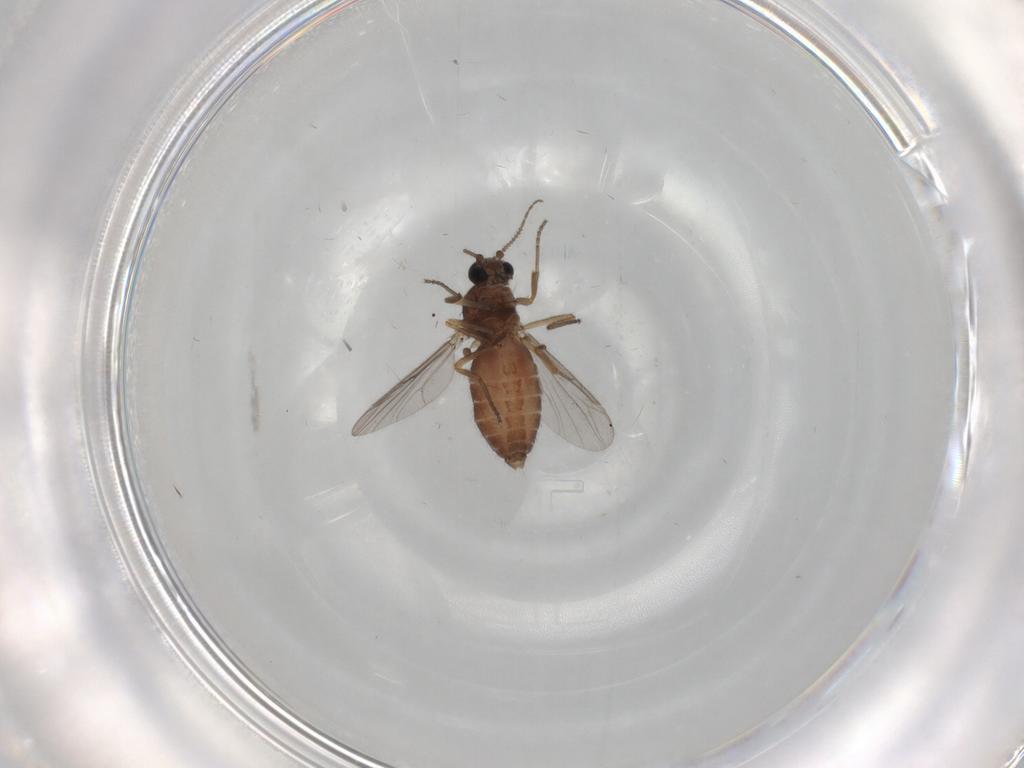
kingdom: Animalia
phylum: Arthropoda
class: Insecta
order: Diptera
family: Ceratopogonidae
